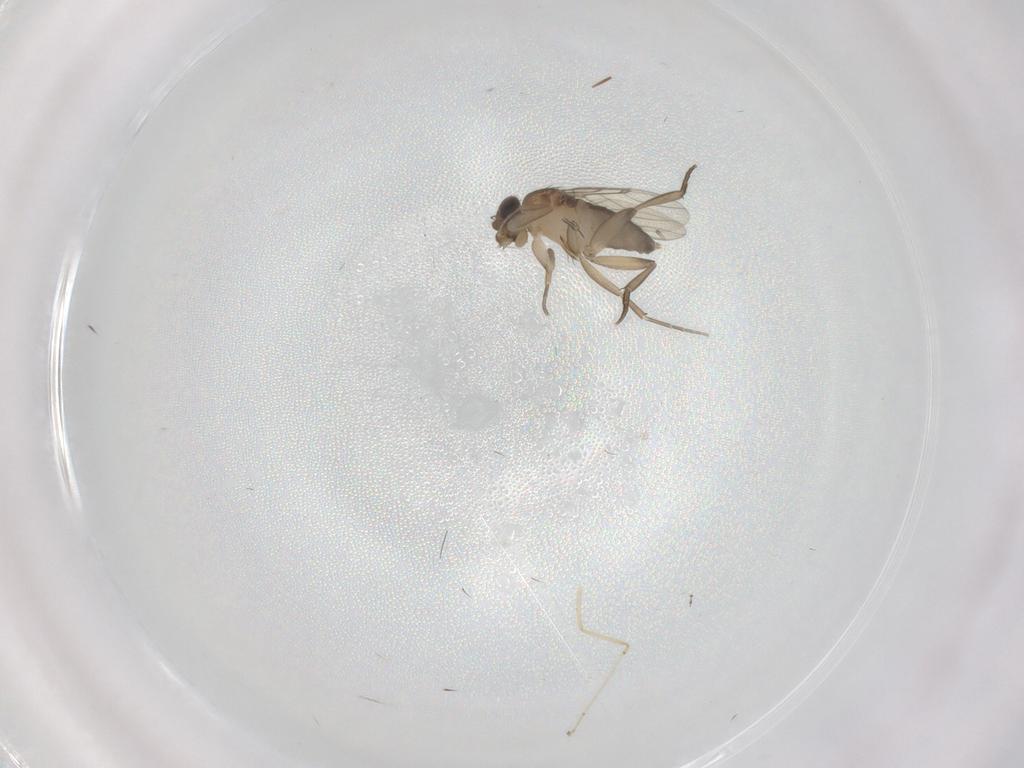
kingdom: Animalia
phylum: Arthropoda
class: Insecta
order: Diptera
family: Phoridae
